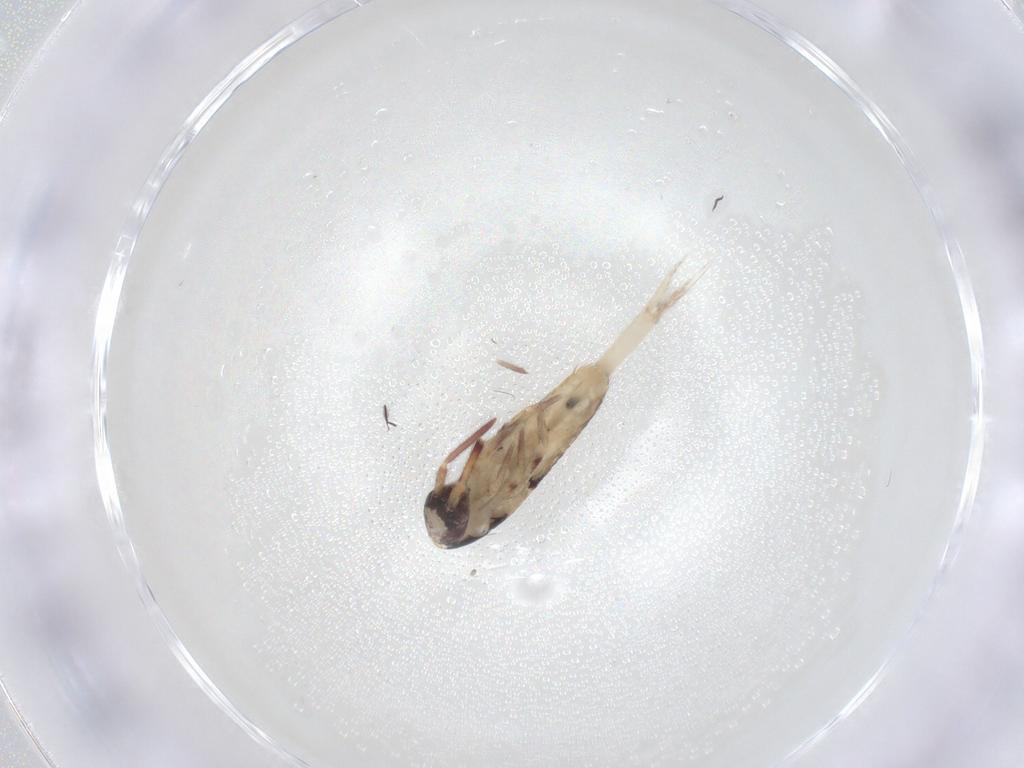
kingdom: Animalia
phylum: Arthropoda
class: Collembola
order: Entomobryomorpha
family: Entomobryidae
